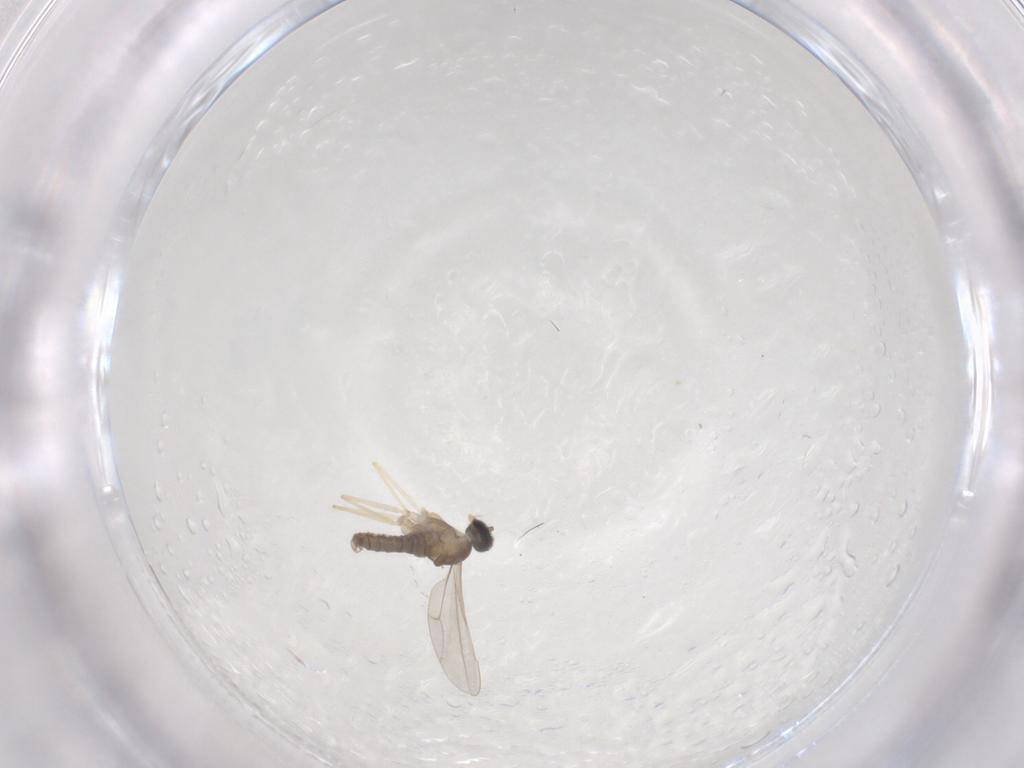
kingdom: Animalia
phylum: Arthropoda
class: Insecta
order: Diptera
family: Cecidomyiidae
